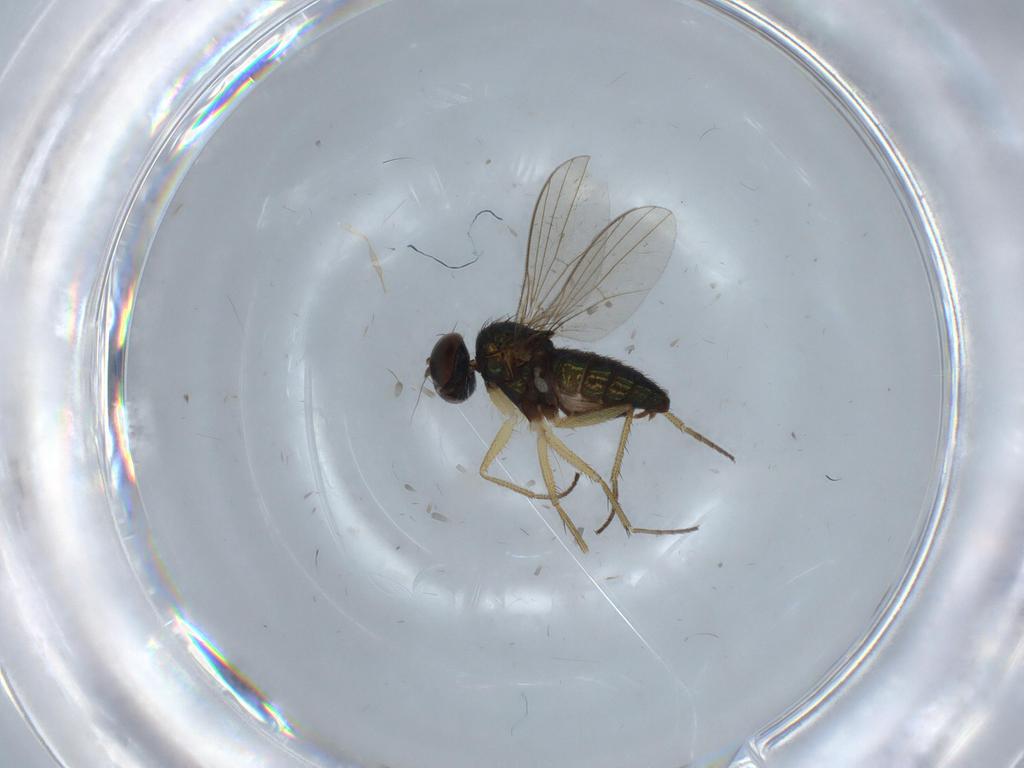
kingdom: Animalia
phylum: Arthropoda
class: Insecta
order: Diptera
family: Chironomidae
